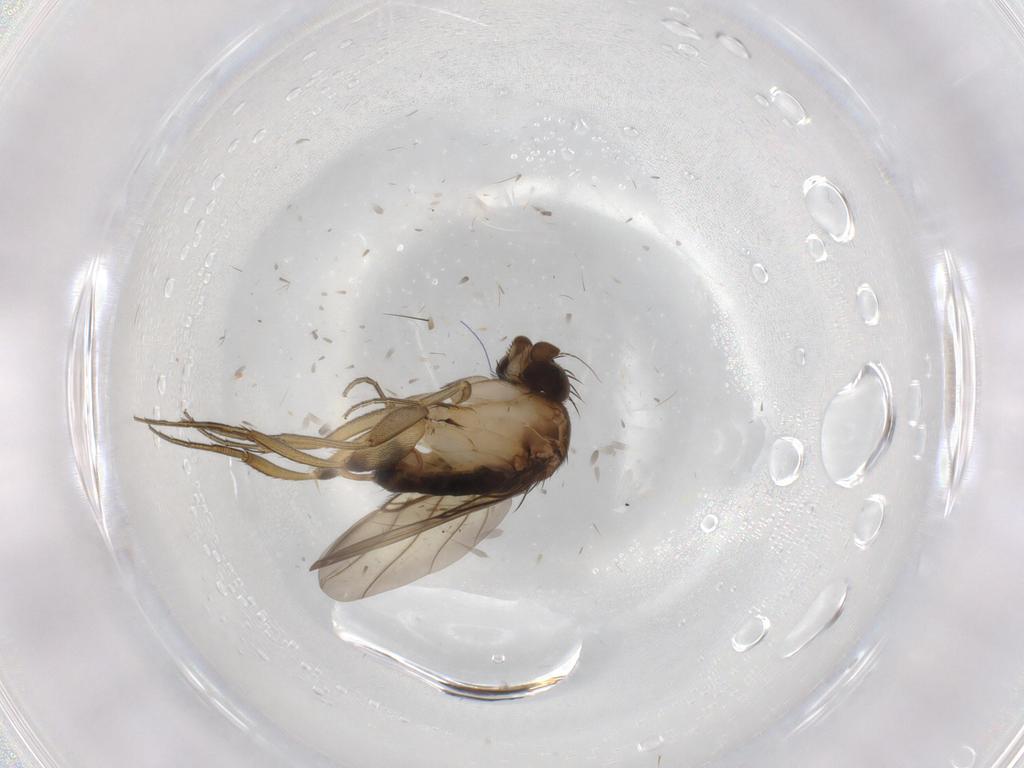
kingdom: Animalia
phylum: Arthropoda
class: Insecta
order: Diptera
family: Phoridae
